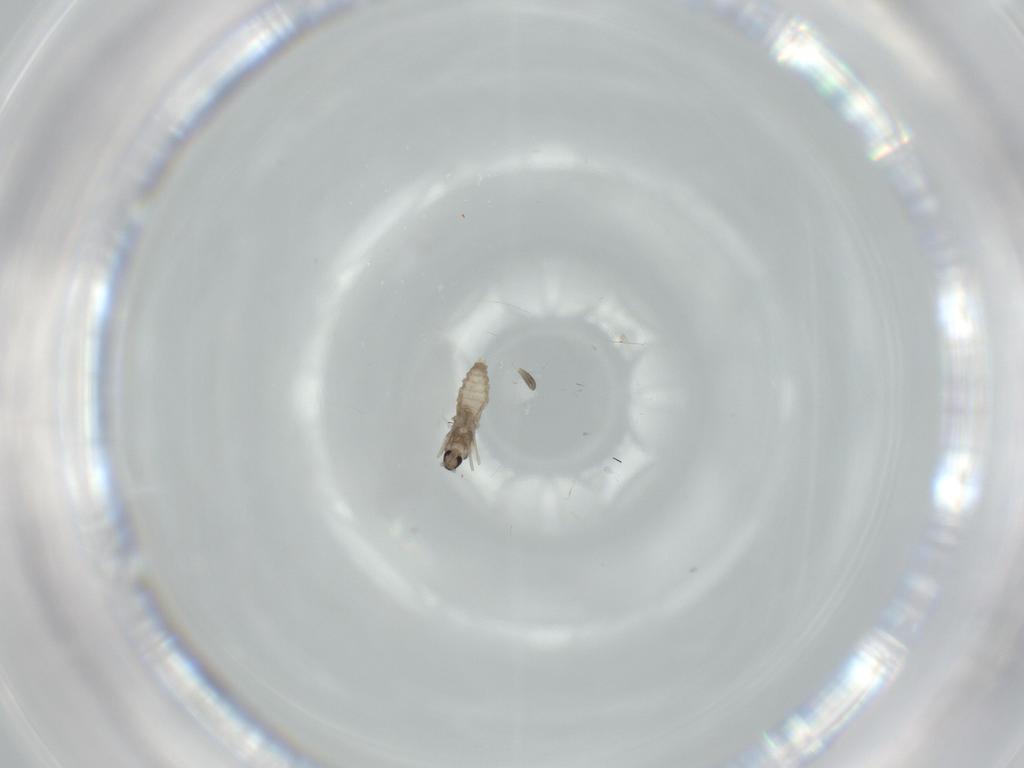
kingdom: Animalia
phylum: Arthropoda
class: Insecta
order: Diptera
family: Cecidomyiidae
